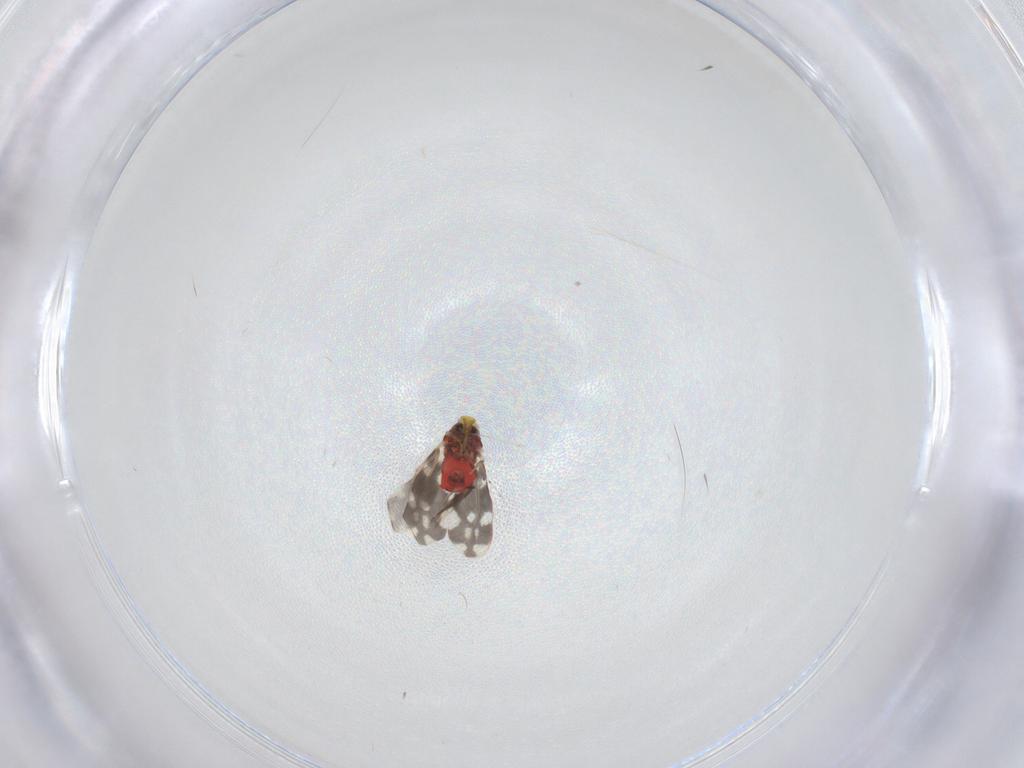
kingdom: Animalia
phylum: Arthropoda
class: Insecta
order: Hemiptera
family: Aleyrodidae
